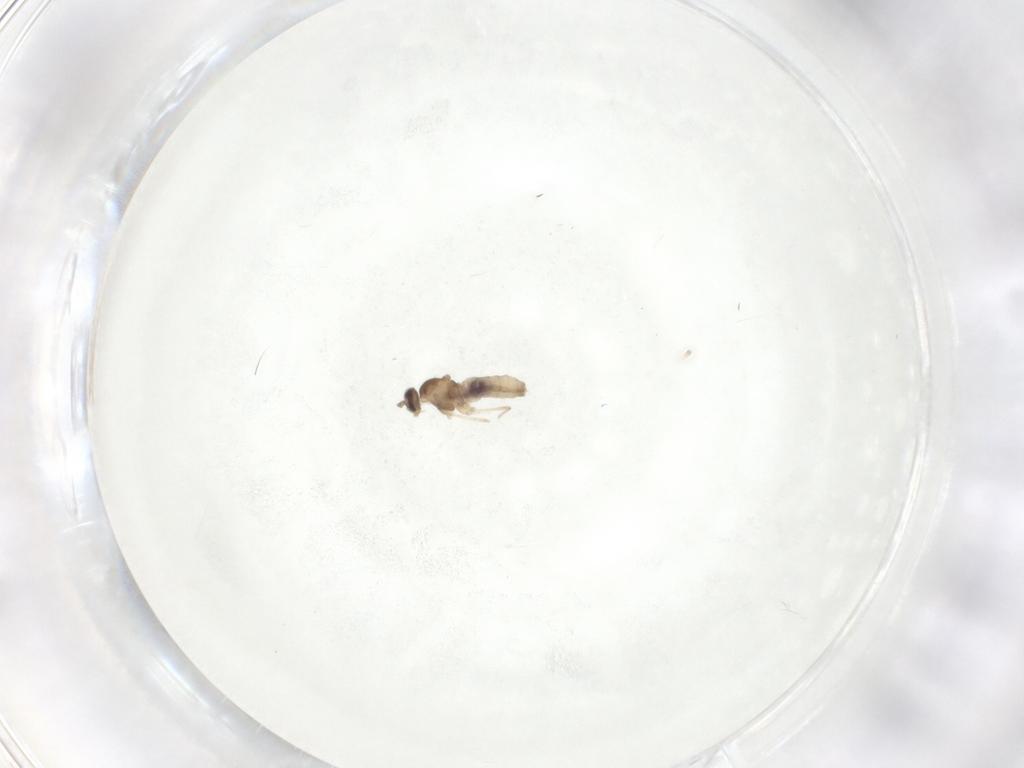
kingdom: Animalia
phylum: Arthropoda
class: Insecta
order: Diptera
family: Cecidomyiidae
